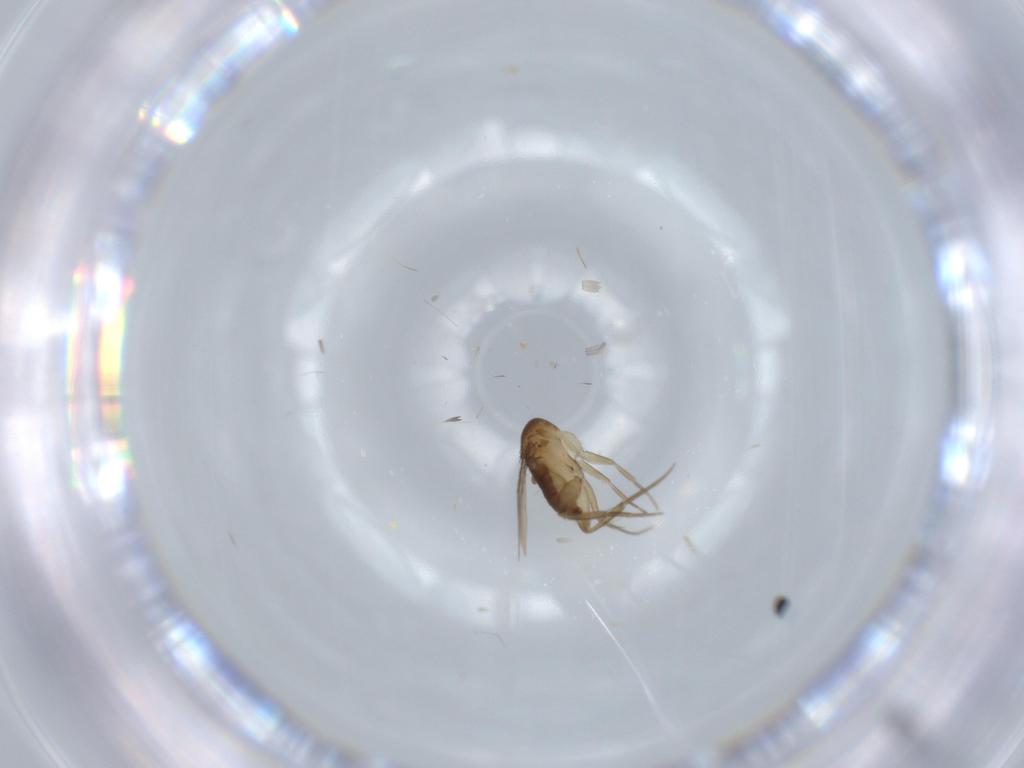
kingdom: Animalia
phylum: Arthropoda
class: Insecta
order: Diptera
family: Phoridae
